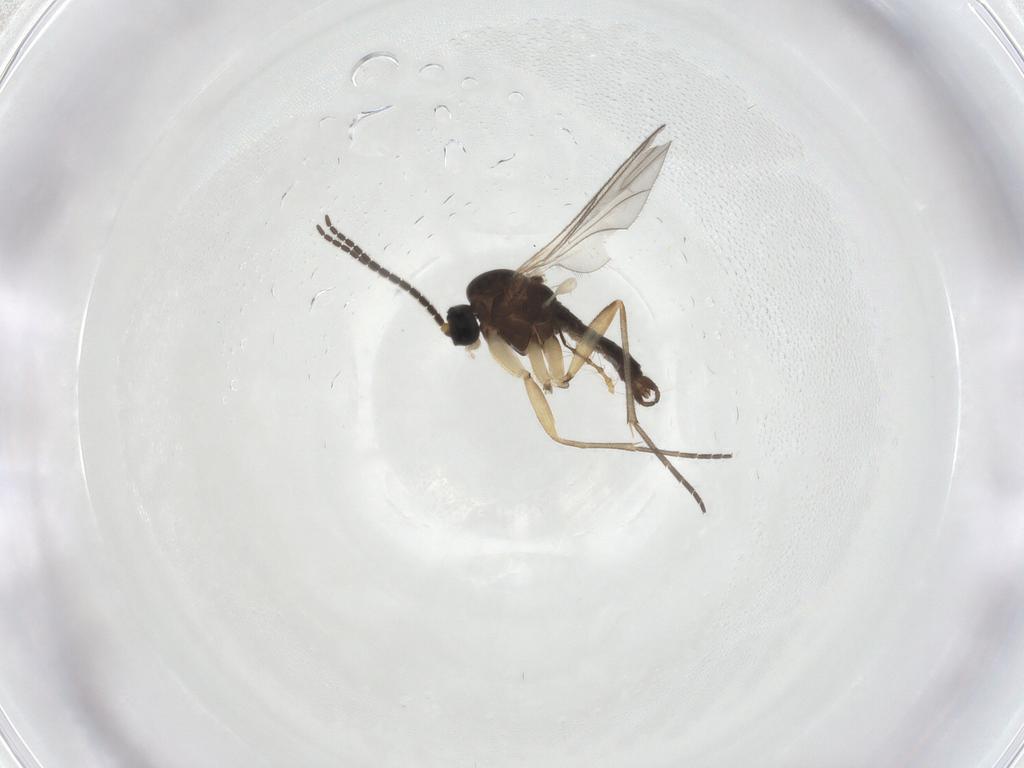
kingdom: Animalia
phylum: Arthropoda
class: Insecta
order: Diptera
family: Sciaridae
